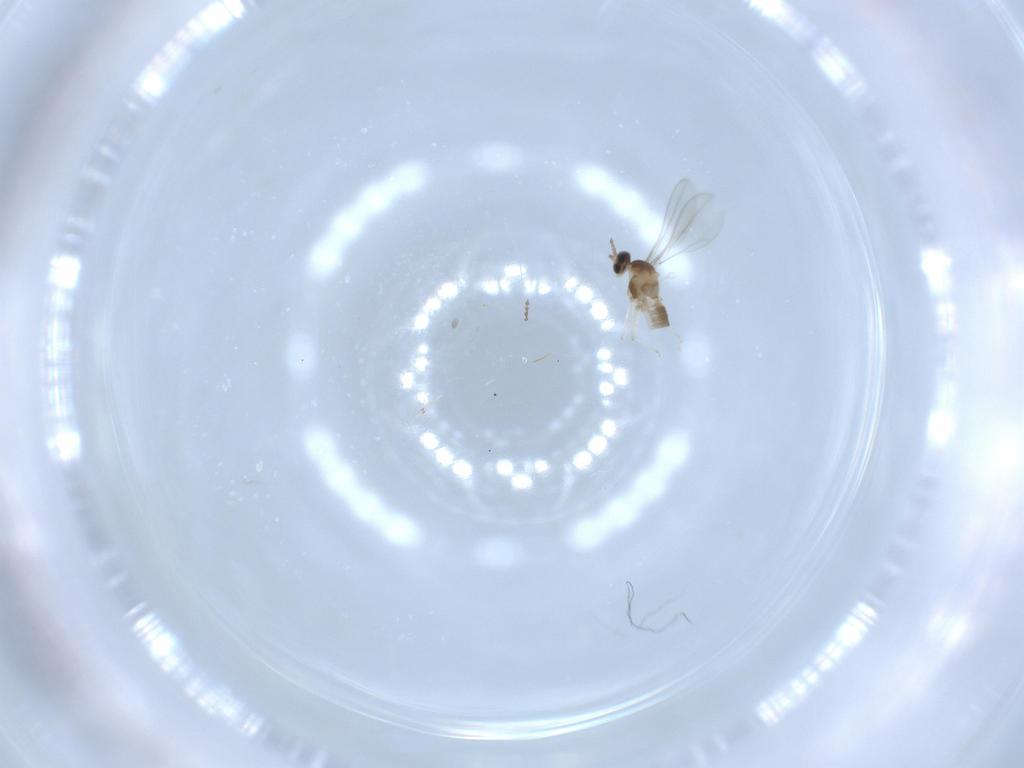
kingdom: Animalia
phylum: Arthropoda
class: Insecta
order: Diptera
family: Cecidomyiidae
